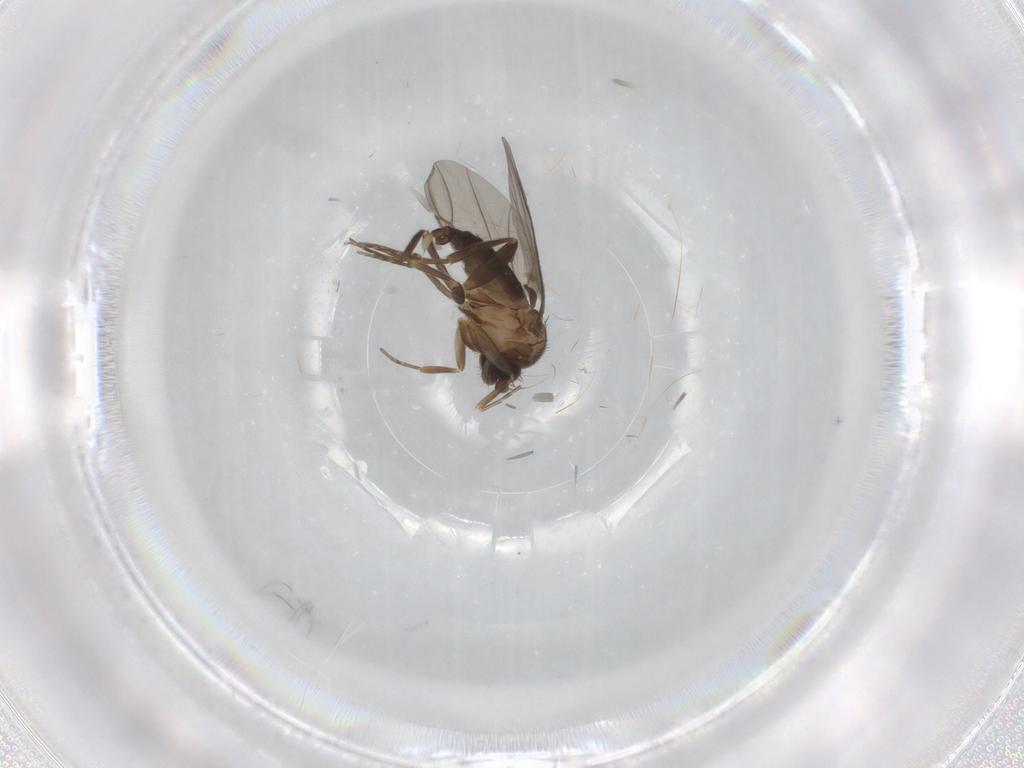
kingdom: Animalia
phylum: Arthropoda
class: Insecta
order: Diptera
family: Phoridae
